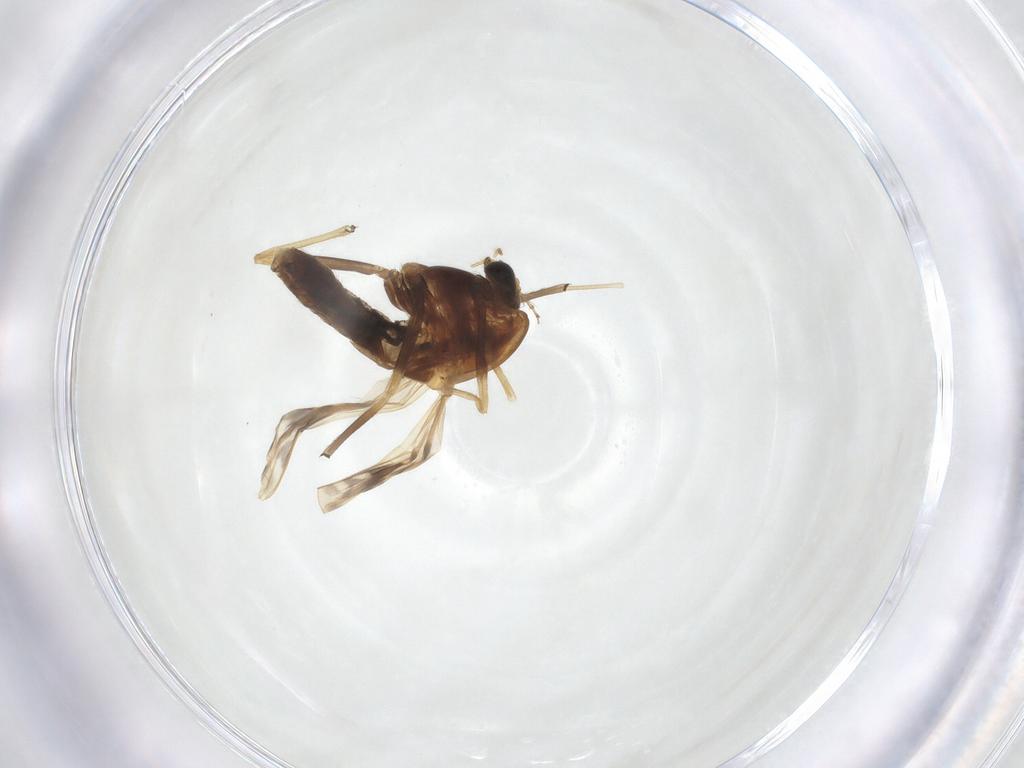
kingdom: Animalia
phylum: Arthropoda
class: Insecta
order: Diptera
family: Chironomidae
